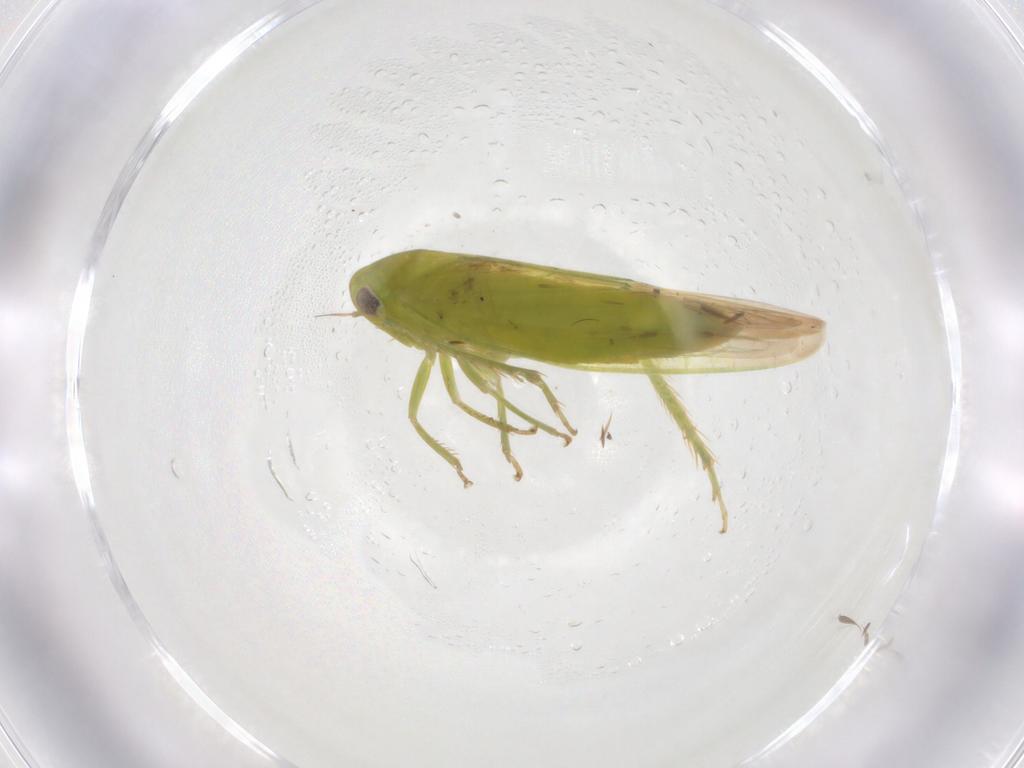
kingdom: Animalia
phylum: Arthropoda
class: Insecta
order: Hemiptera
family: Cicadellidae
